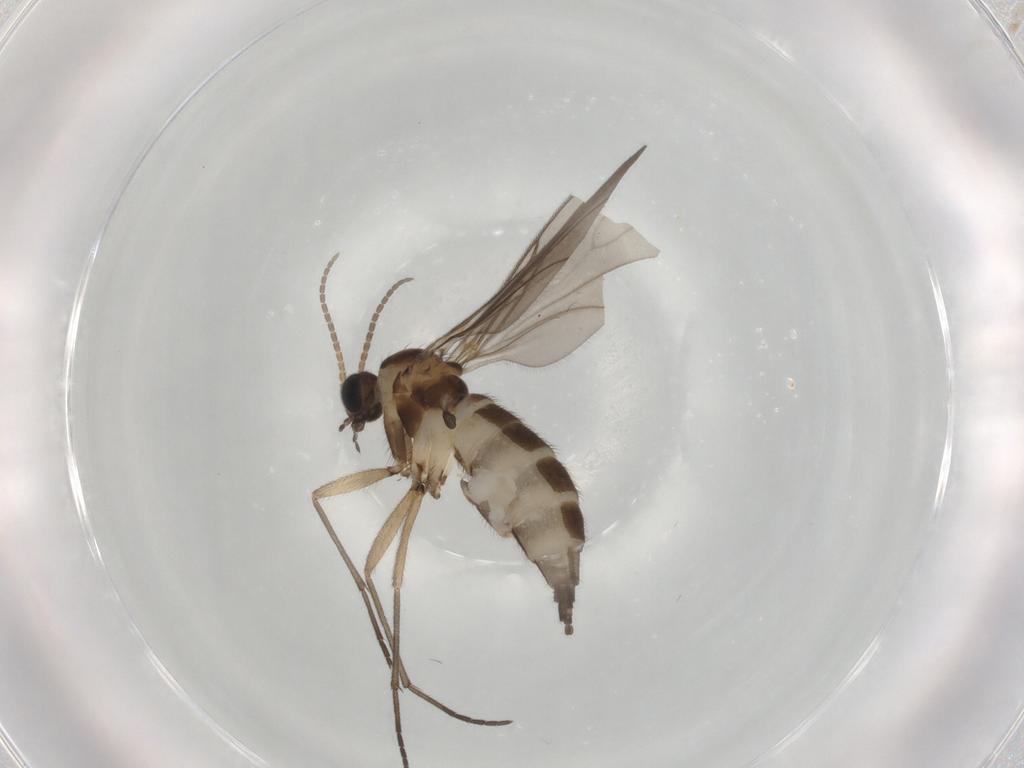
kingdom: Animalia
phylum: Arthropoda
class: Insecta
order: Diptera
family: Sciaridae
